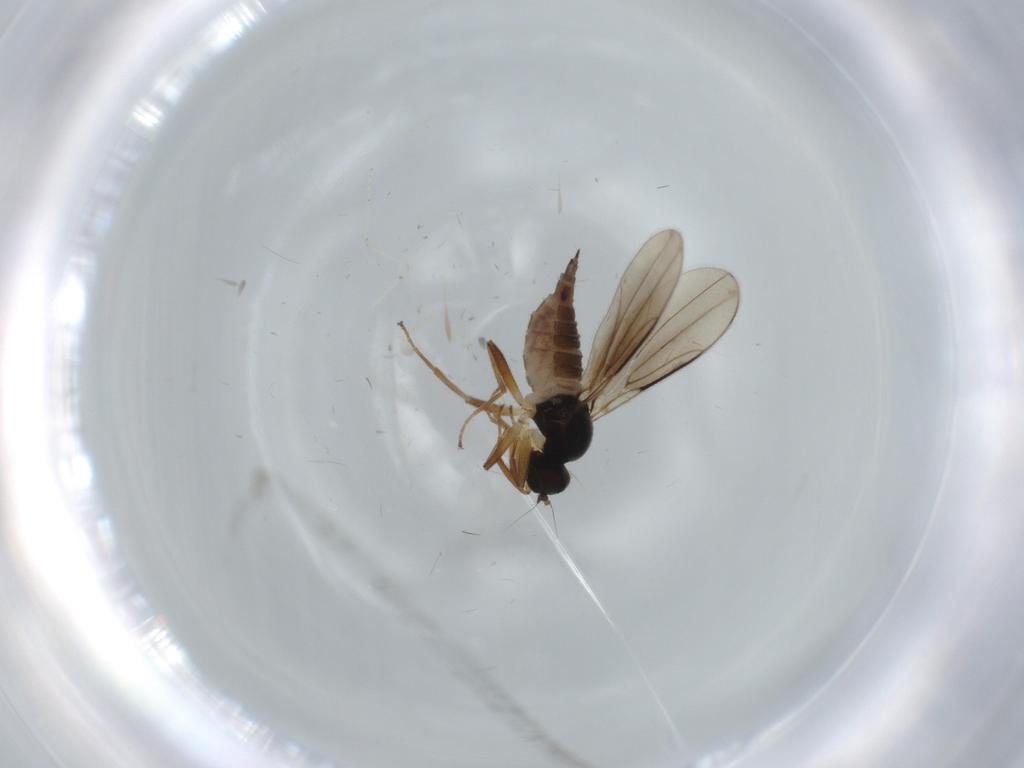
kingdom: Animalia
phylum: Arthropoda
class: Insecta
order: Diptera
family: Hybotidae
